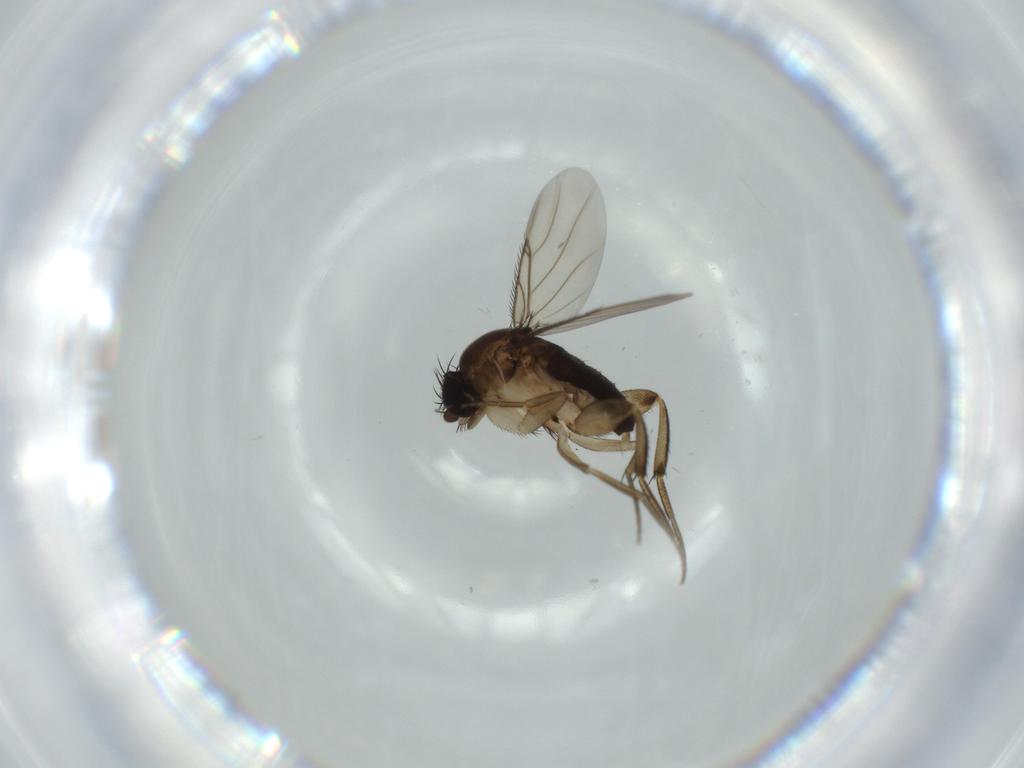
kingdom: Animalia
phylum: Arthropoda
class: Insecta
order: Diptera
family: Phoridae
